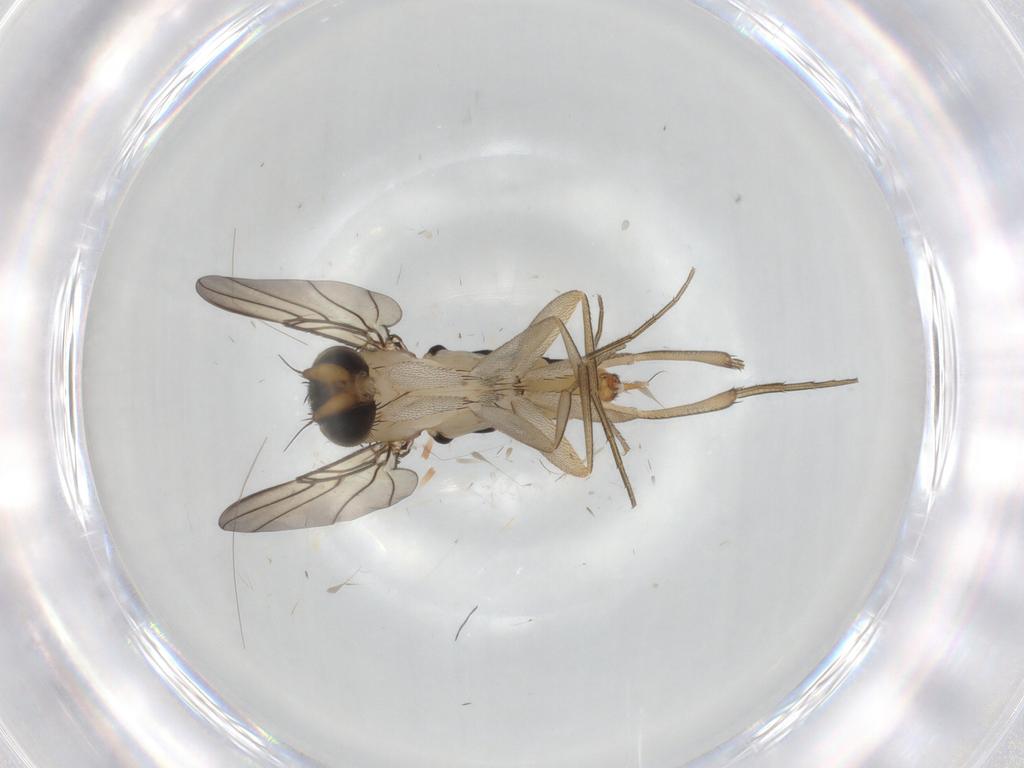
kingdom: Animalia
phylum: Arthropoda
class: Insecta
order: Diptera
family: Phoridae
